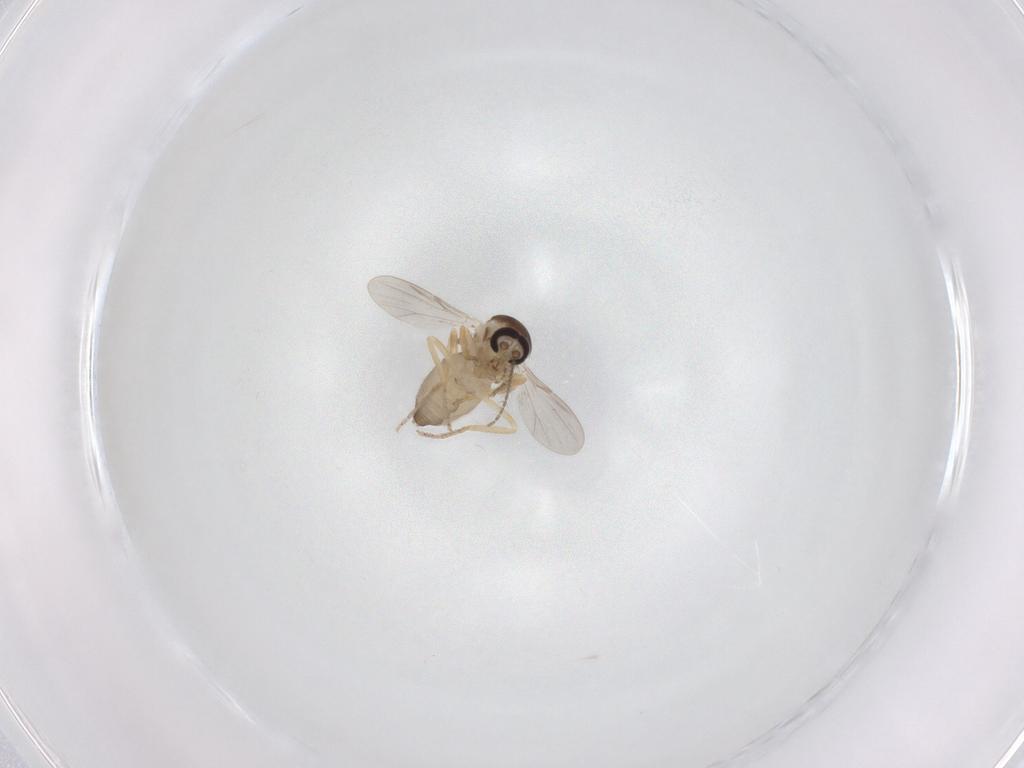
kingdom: Animalia
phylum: Arthropoda
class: Insecta
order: Diptera
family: Ceratopogonidae
